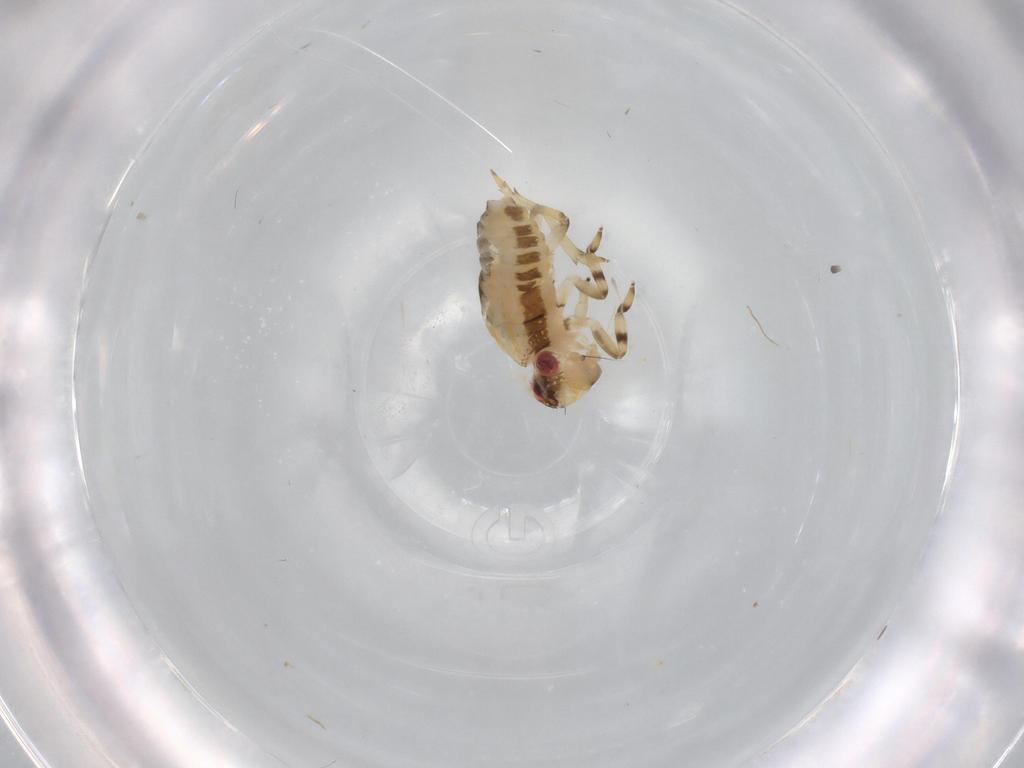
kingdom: Animalia
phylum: Arthropoda
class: Insecta
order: Hemiptera
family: Issidae
